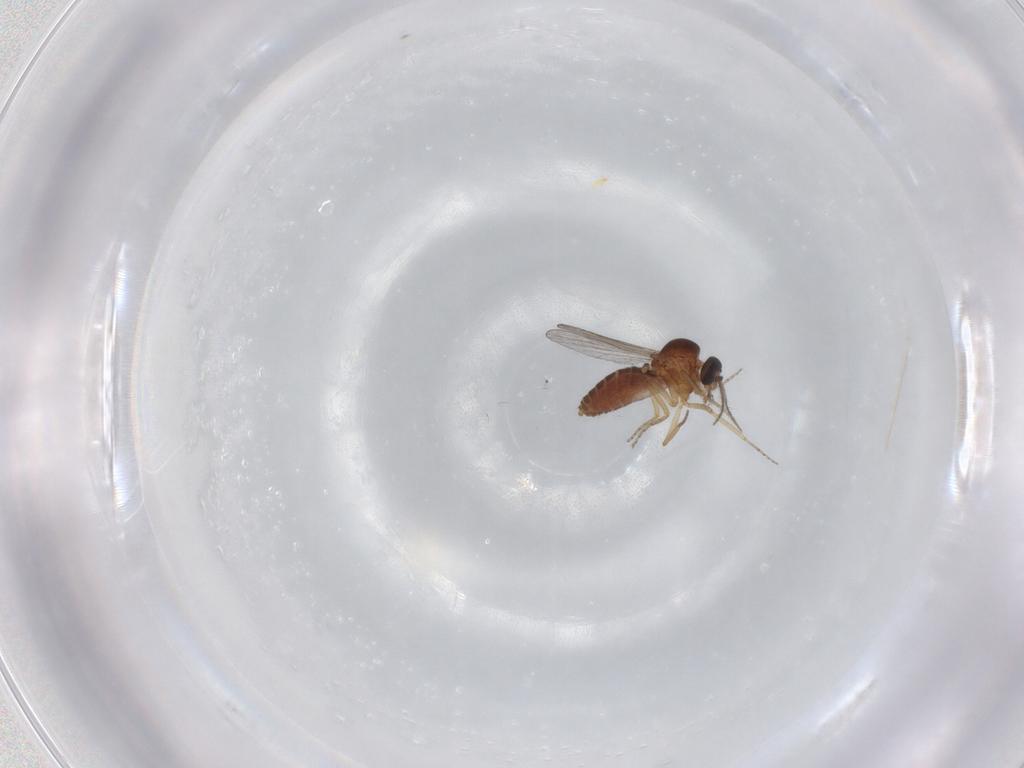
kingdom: Animalia
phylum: Arthropoda
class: Insecta
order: Diptera
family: Ceratopogonidae
